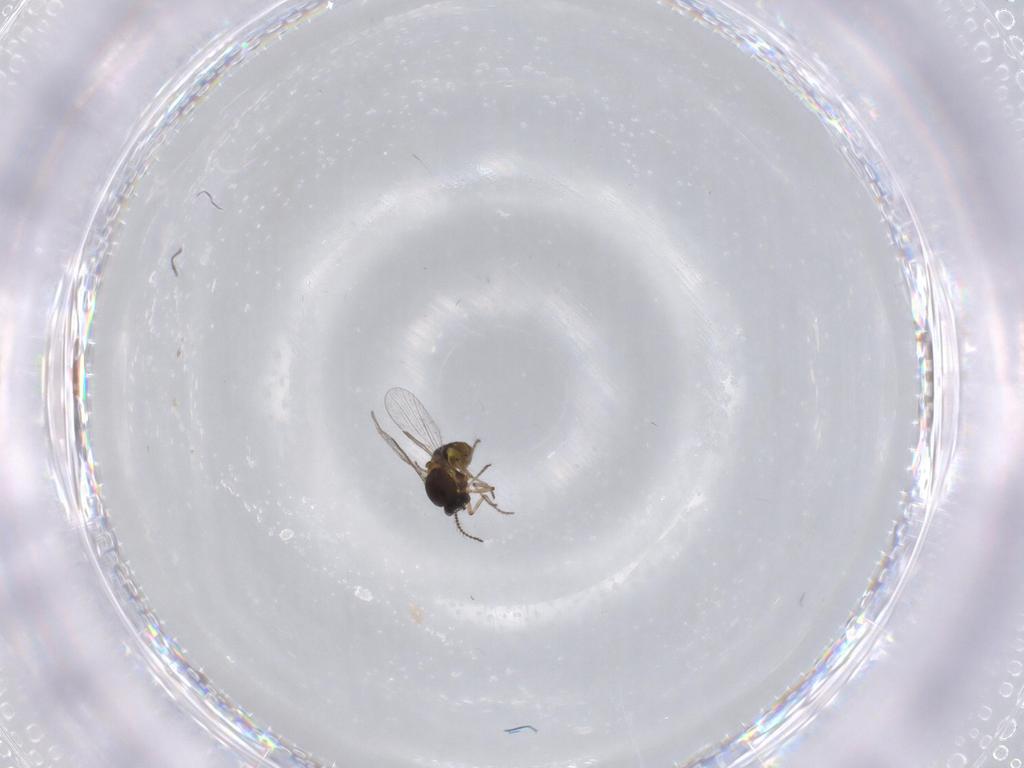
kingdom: Animalia
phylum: Arthropoda
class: Insecta
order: Diptera
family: Ceratopogonidae
